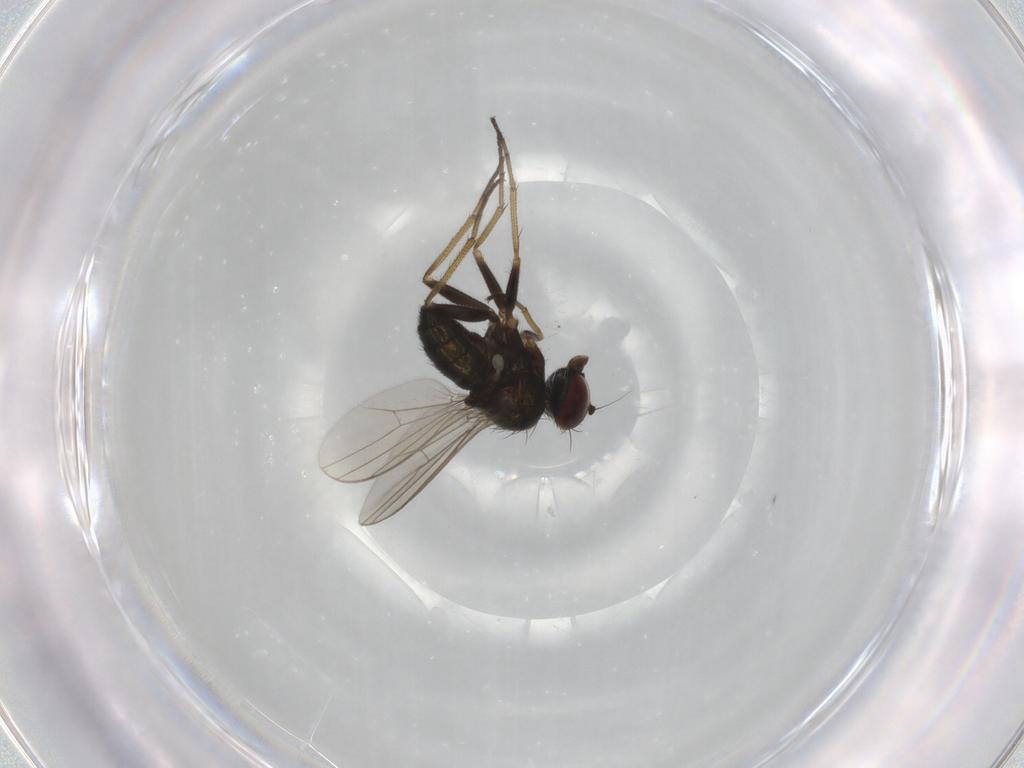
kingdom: Animalia
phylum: Arthropoda
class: Insecta
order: Diptera
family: Dolichopodidae
